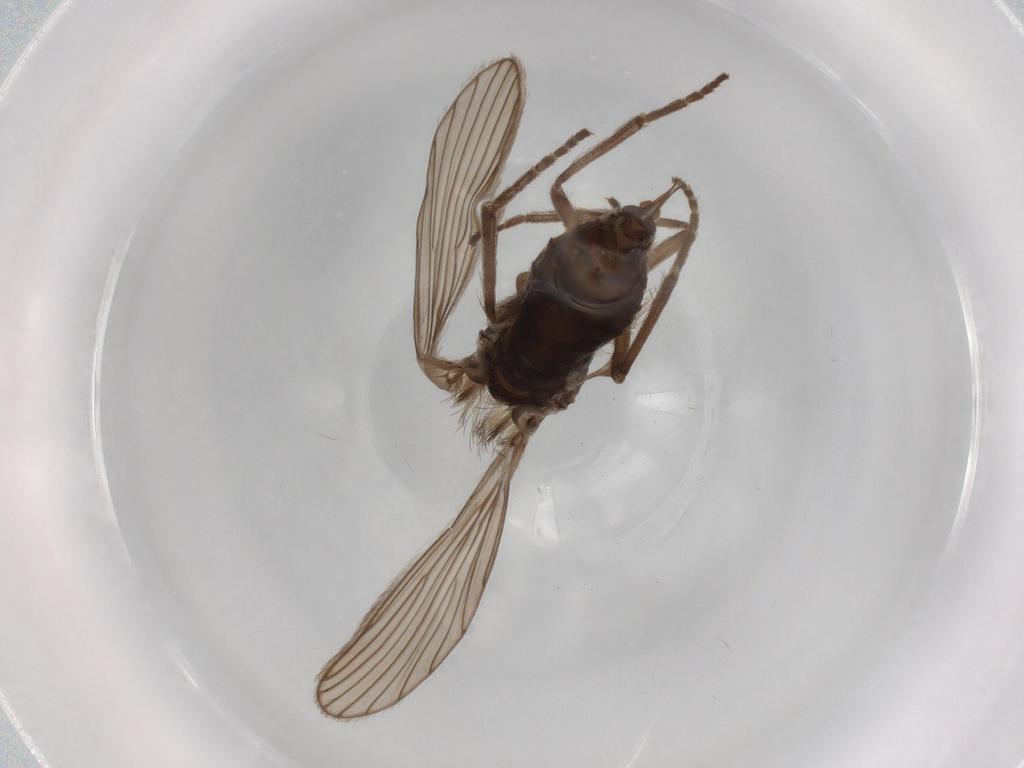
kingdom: Animalia
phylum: Arthropoda
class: Insecta
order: Diptera
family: Psychodidae
